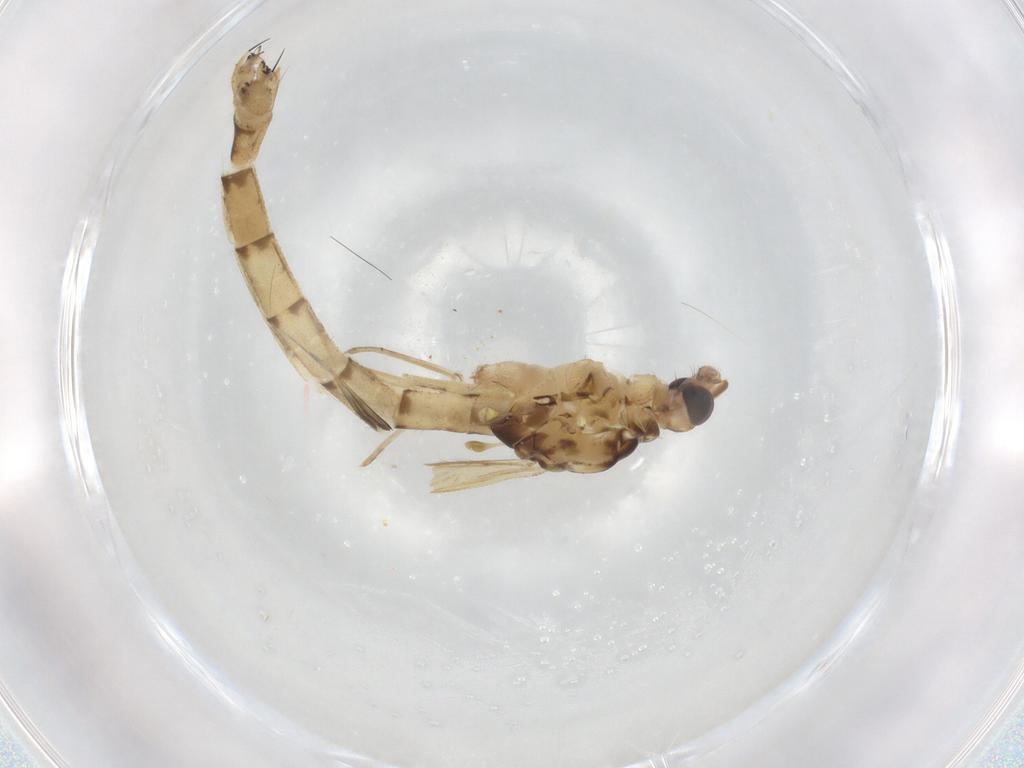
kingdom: Animalia
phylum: Arthropoda
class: Insecta
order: Diptera
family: Limoniidae
